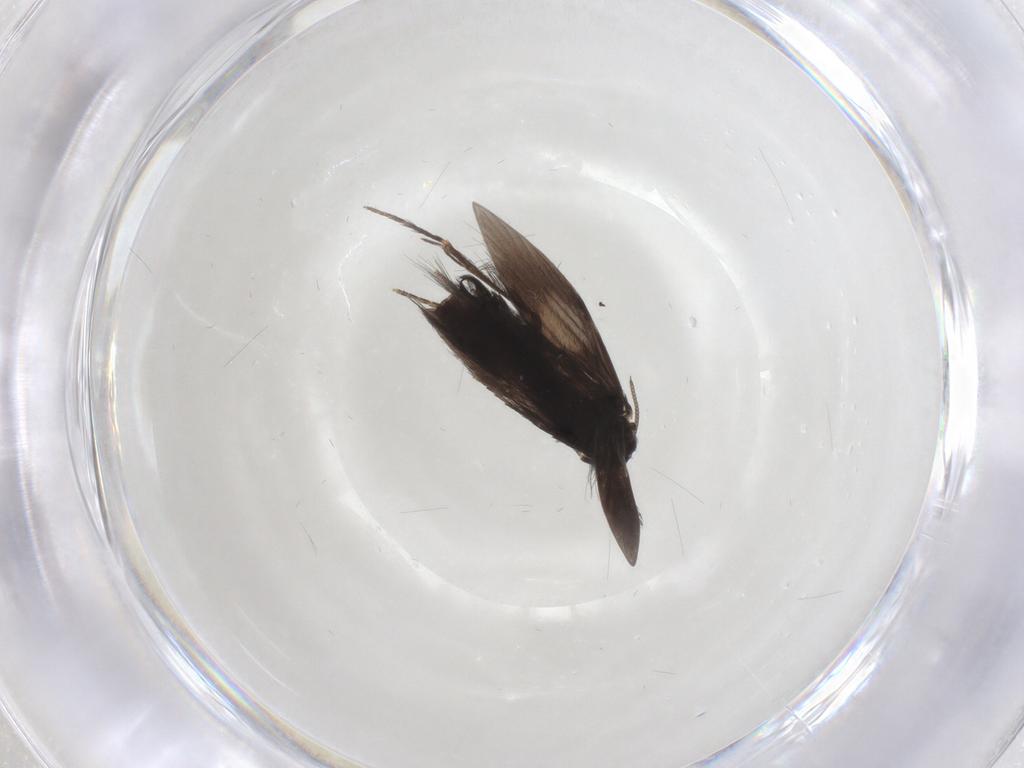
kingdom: Animalia
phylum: Arthropoda
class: Insecta
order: Trichoptera
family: Hydroptilidae
